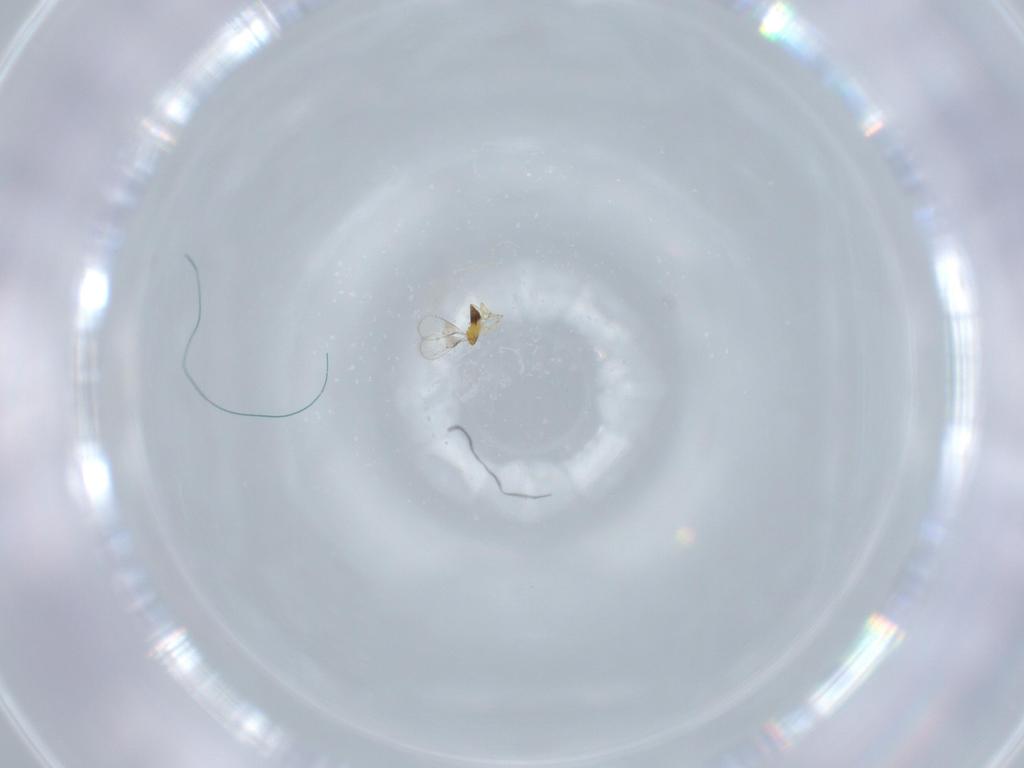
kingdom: Animalia
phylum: Arthropoda
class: Insecta
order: Hymenoptera
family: Trichogrammatidae
